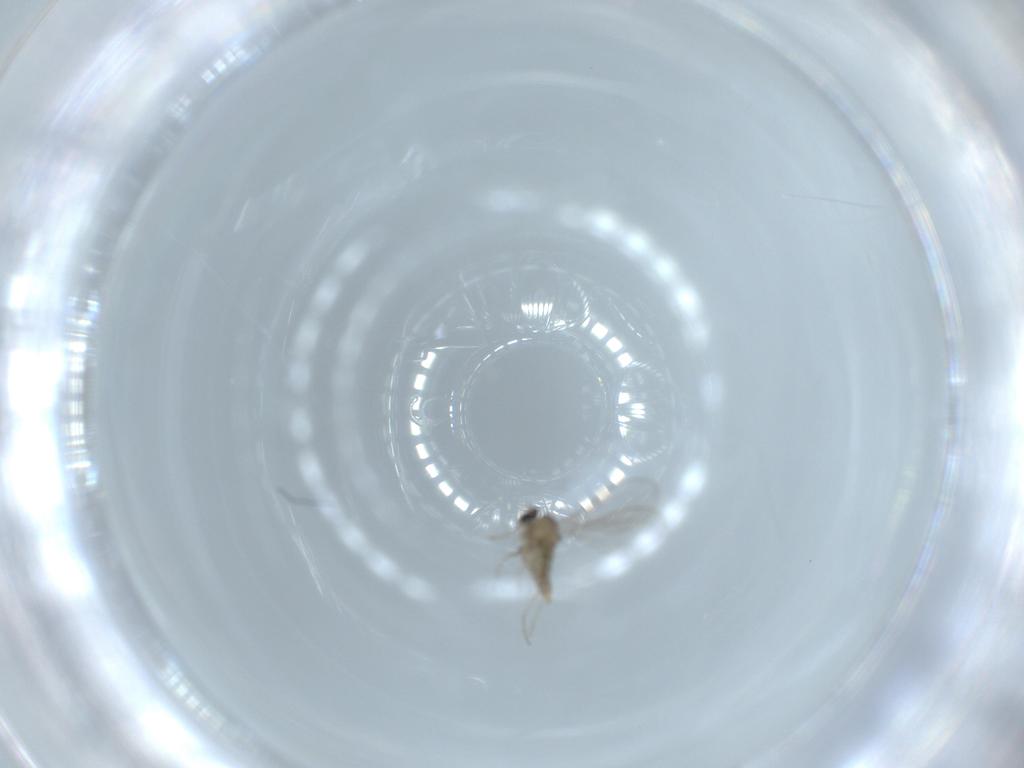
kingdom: Animalia
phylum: Arthropoda
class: Insecta
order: Diptera
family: Cecidomyiidae
